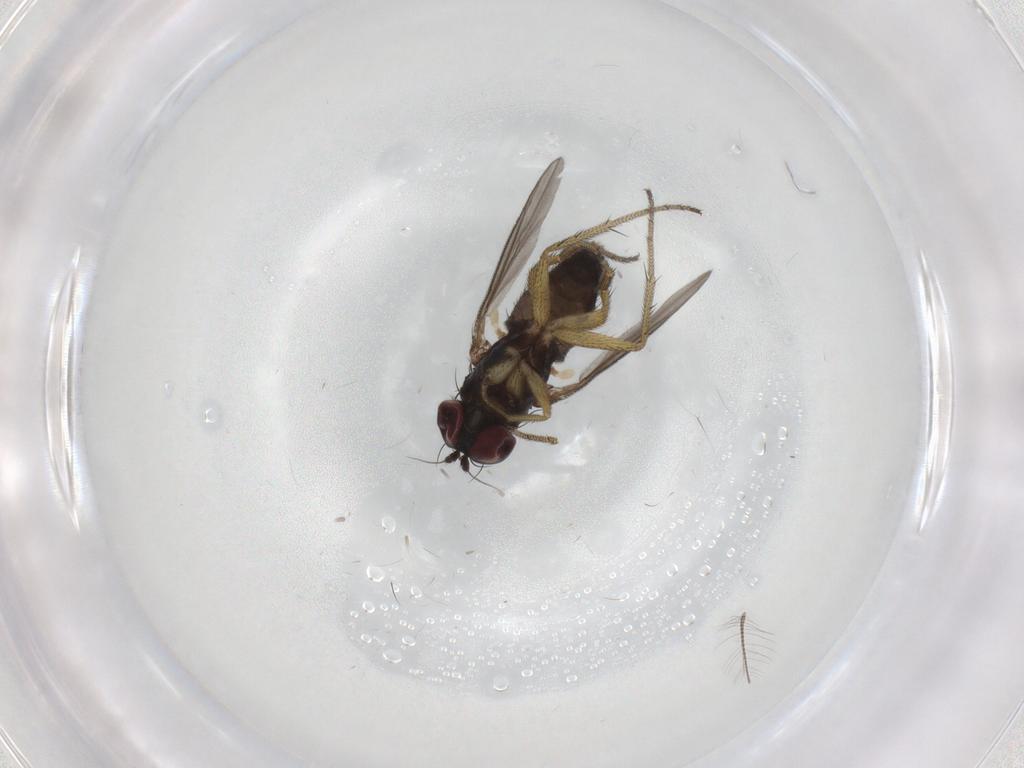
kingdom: Animalia
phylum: Arthropoda
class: Insecta
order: Diptera
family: Dolichopodidae
